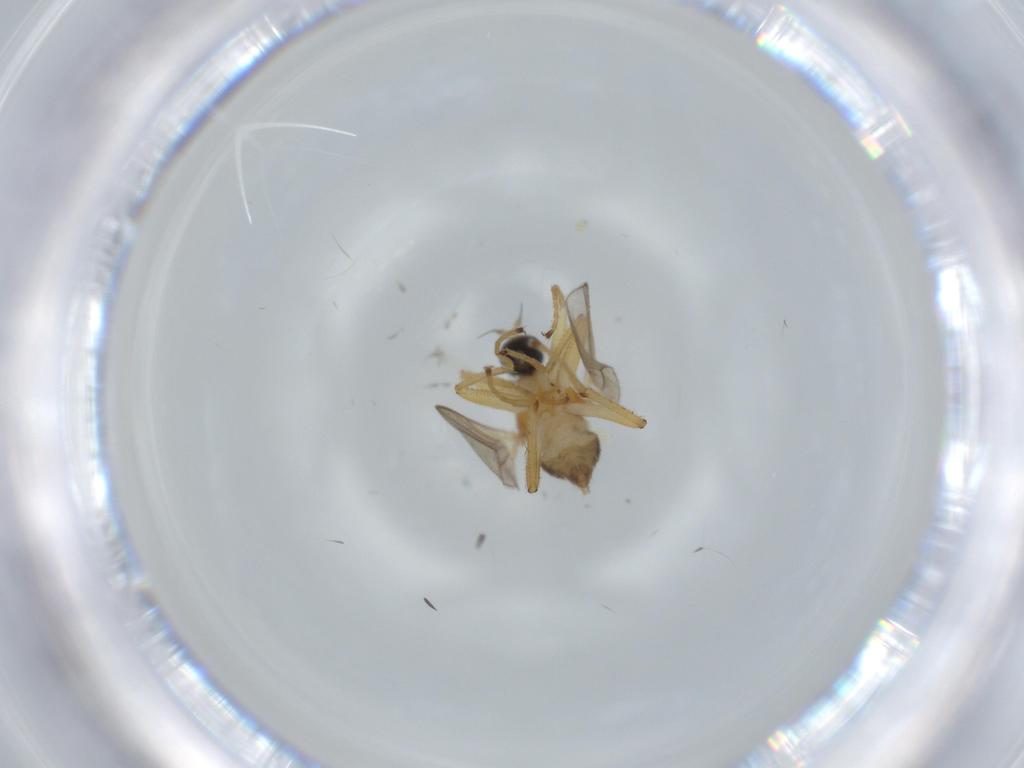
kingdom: Animalia
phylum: Arthropoda
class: Insecta
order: Diptera
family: Hybotidae
